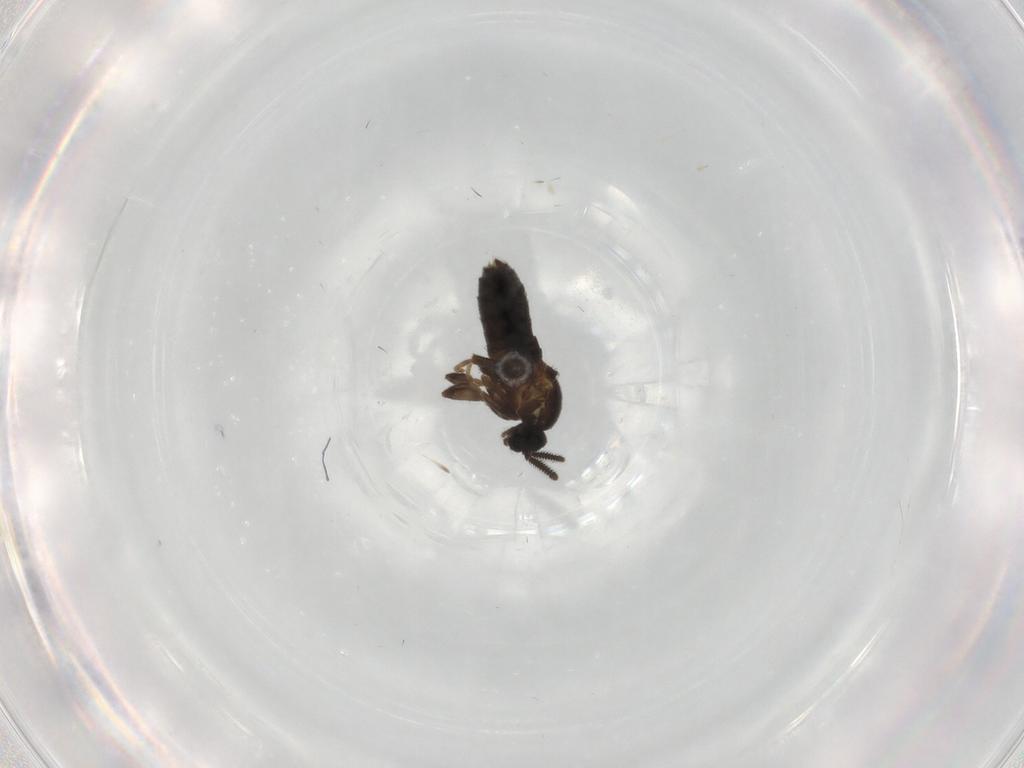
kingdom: Animalia
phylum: Arthropoda
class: Insecta
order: Diptera
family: Scatopsidae
